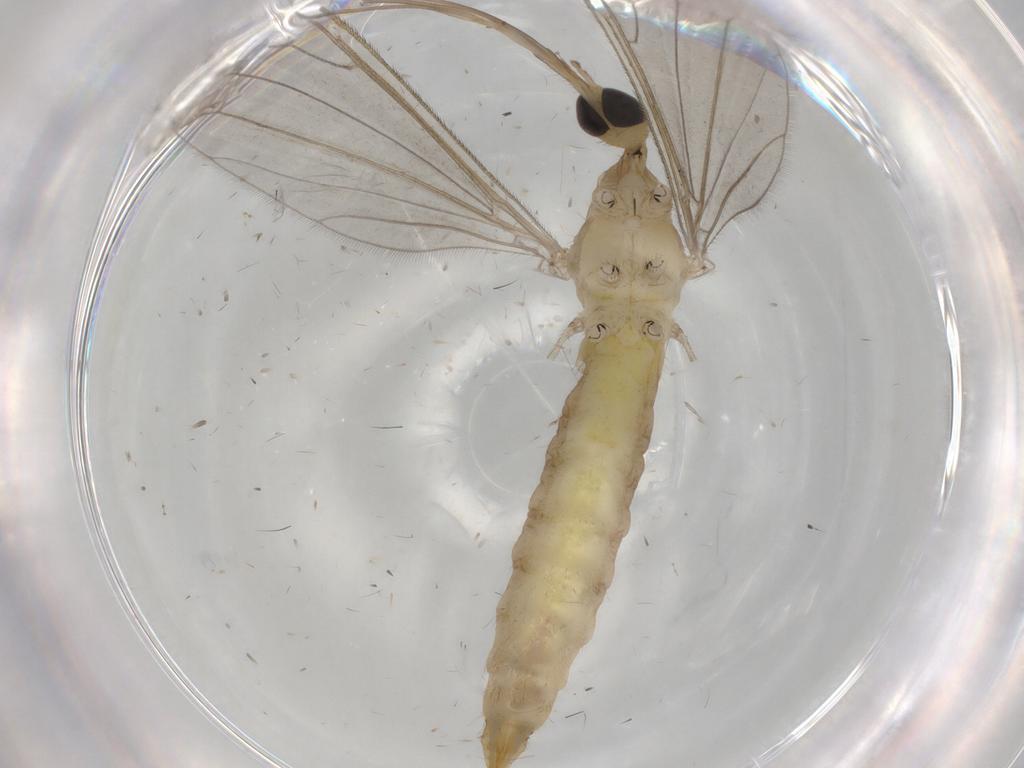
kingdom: Animalia
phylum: Arthropoda
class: Insecta
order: Diptera
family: Limoniidae
